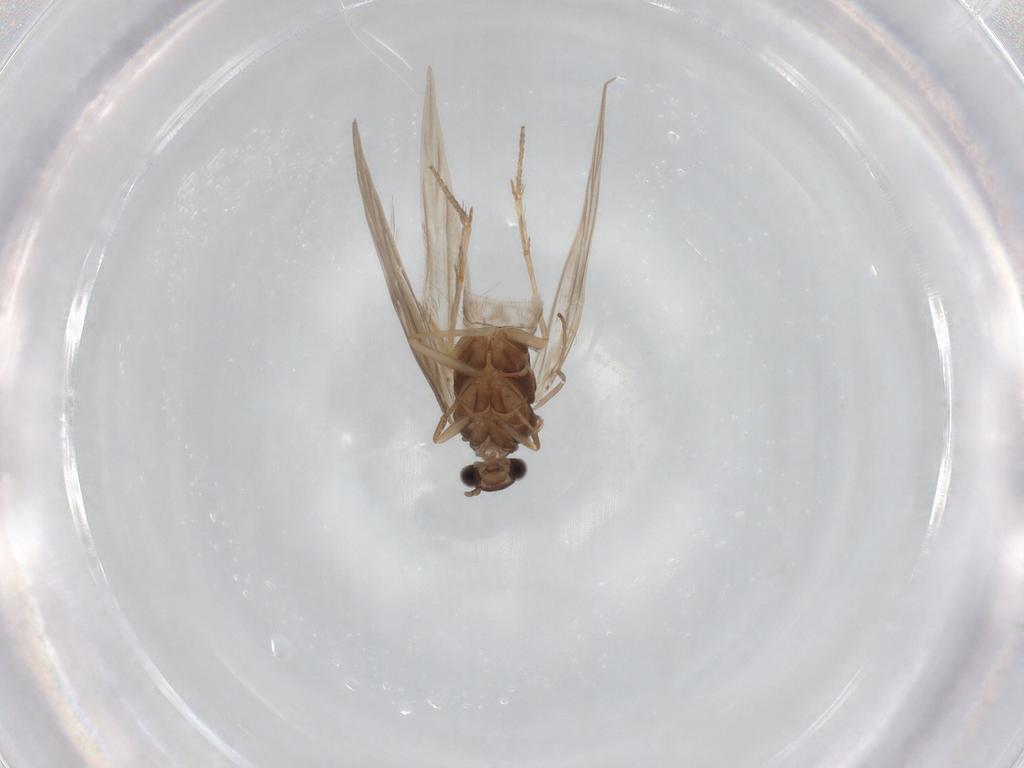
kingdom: Animalia
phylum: Arthropoda
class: Insecta
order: Trichoptera
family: Hydroptilidae
